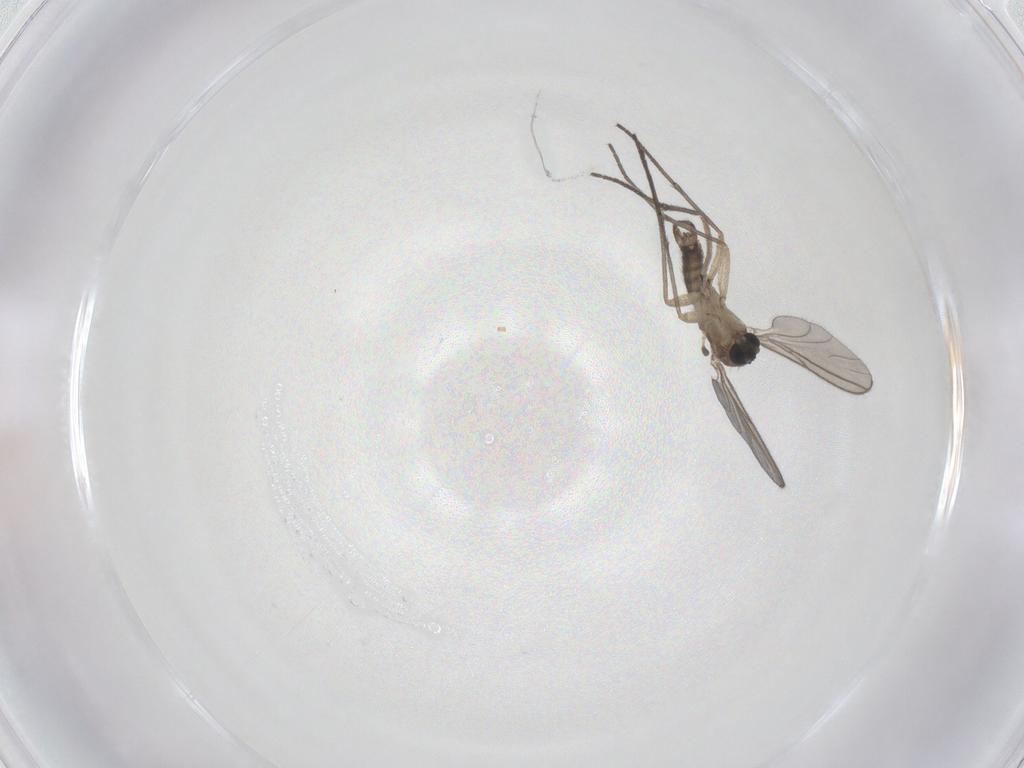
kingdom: Animalia
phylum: Arthropoda
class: Insecta
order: Diptera
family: Sciaridae
